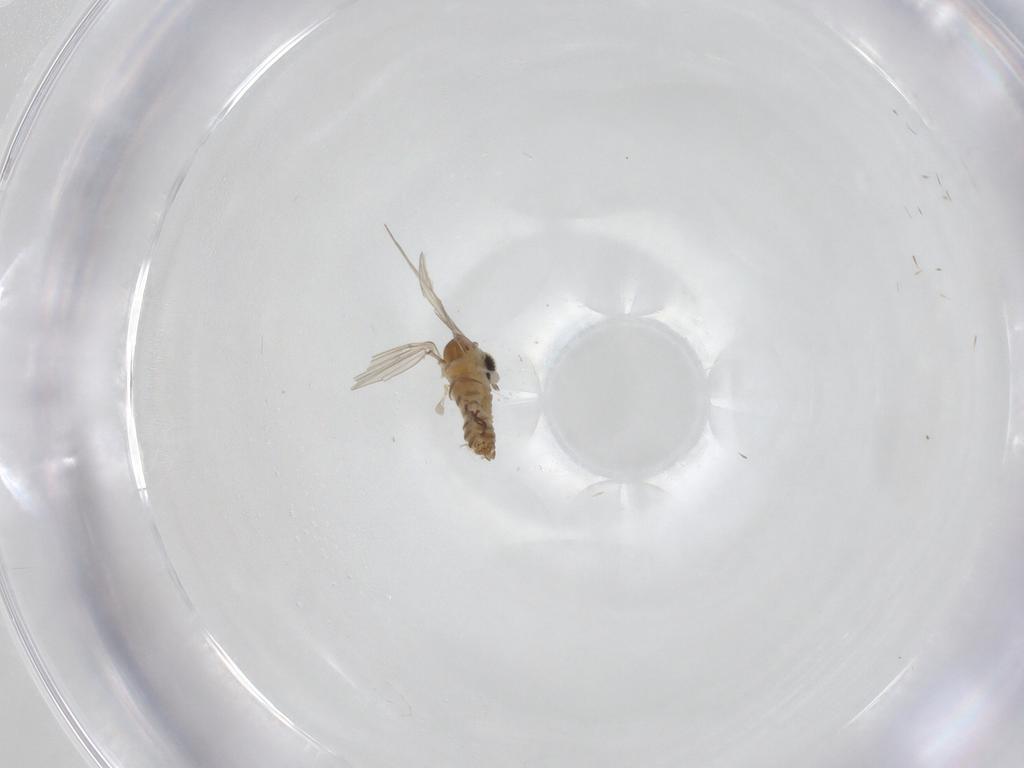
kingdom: Animalia
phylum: Arthropoda
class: Insecta
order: Diptera
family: Psychodidae
